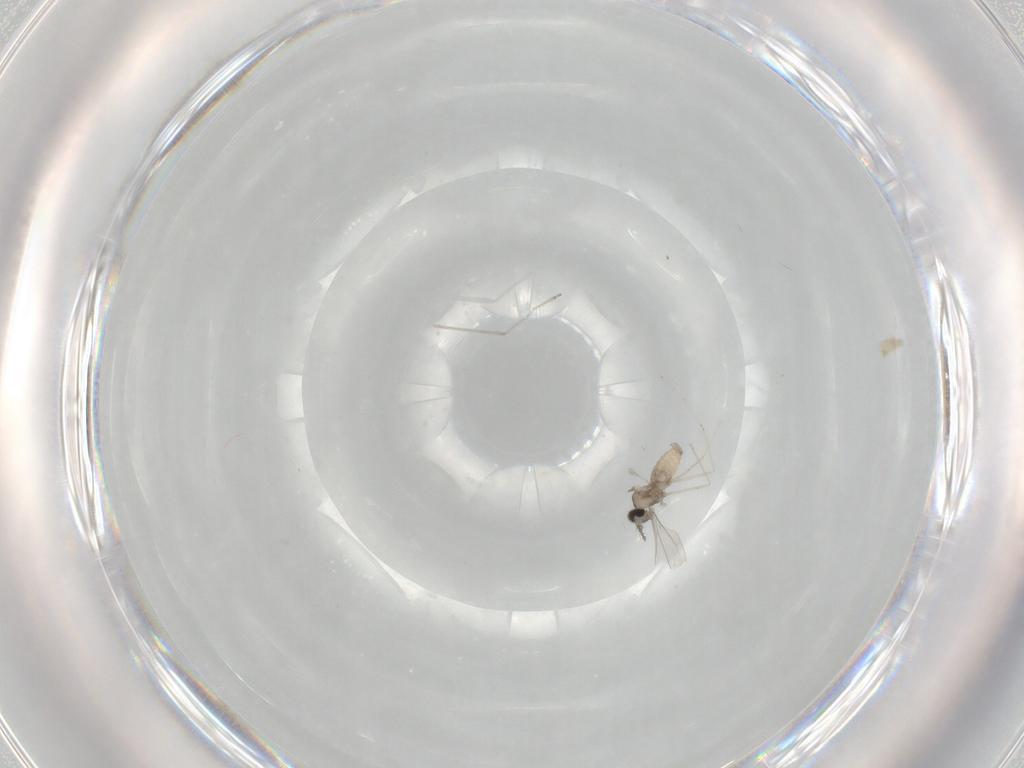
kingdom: Animalia
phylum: Arthropoda
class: Insecta
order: Diptera
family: Cecidomyiidae
